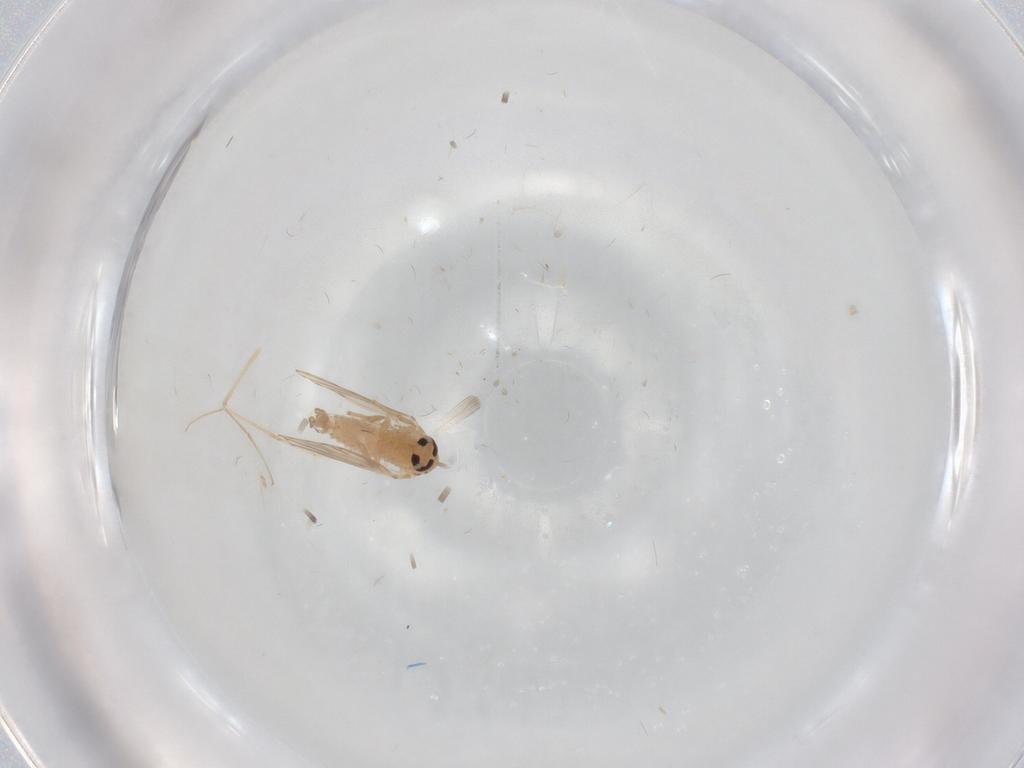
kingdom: Animalia
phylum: Arthropoda
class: Insecta
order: Diptera
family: Psychodidae
